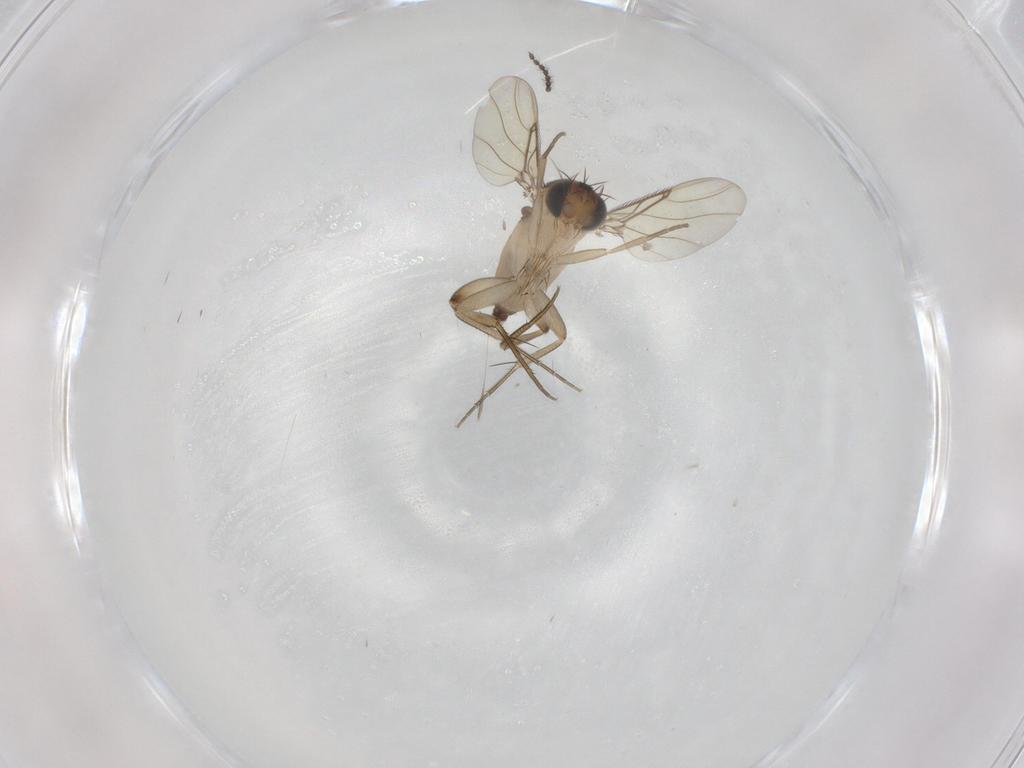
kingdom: Animalia
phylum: Arthropoda
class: Insecta
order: Diptera
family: Phoridae
